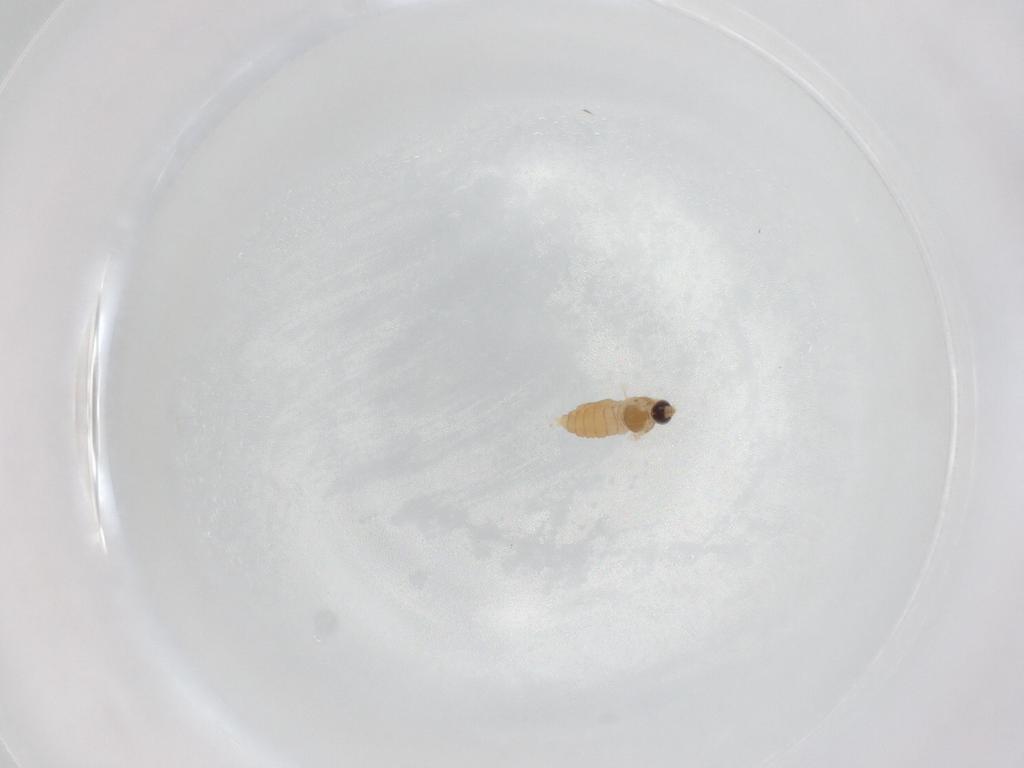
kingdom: Animalia
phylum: Arthropoda
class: Insecta
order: Diptera
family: Cecidomyiidae
